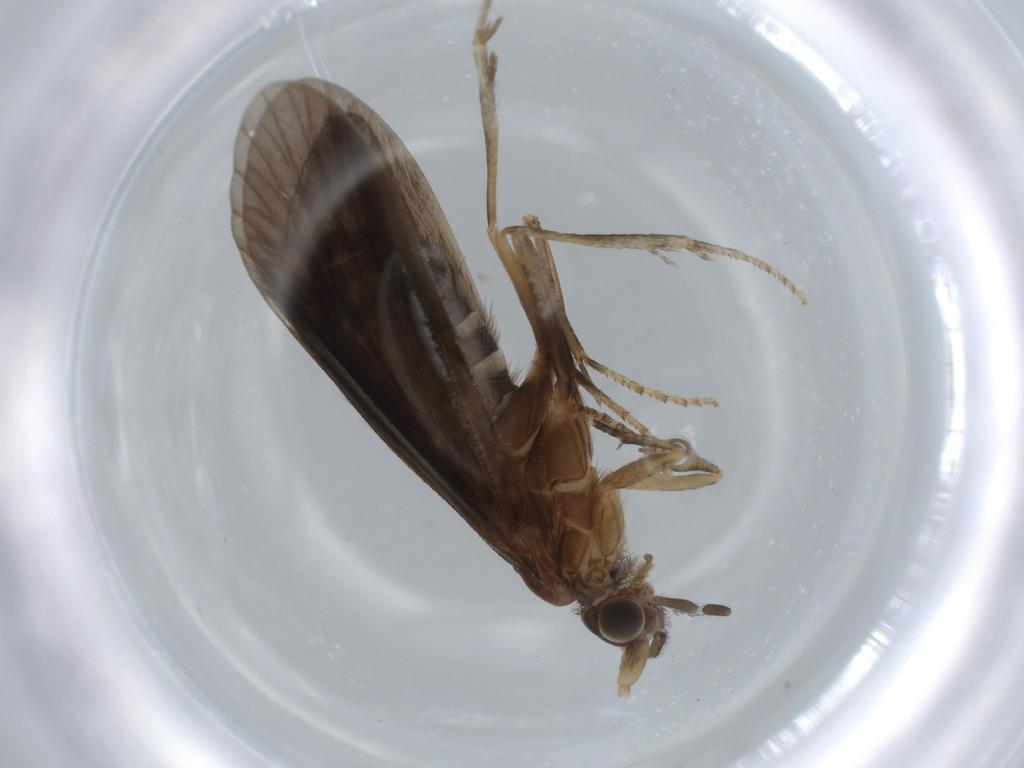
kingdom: Animalia
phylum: Arthropoda
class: Insecta
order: Trichoptera
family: Helicopsychidae
